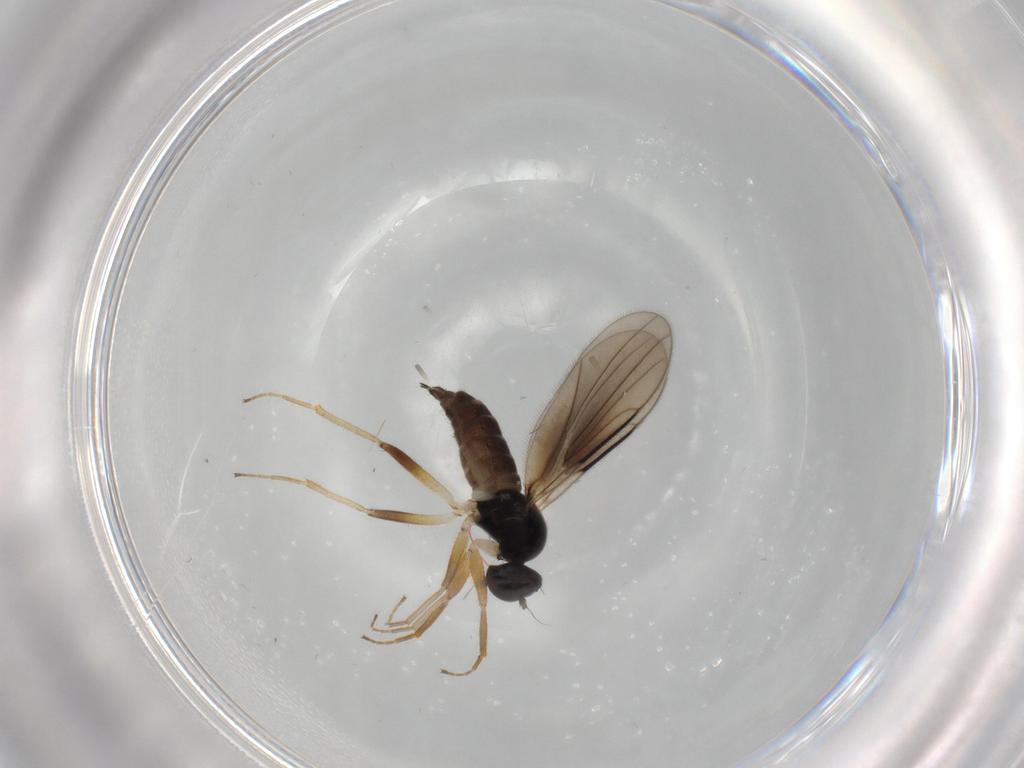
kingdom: Animalia
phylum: Arthropoda
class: Insecta
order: Diptera
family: Hybotidae
